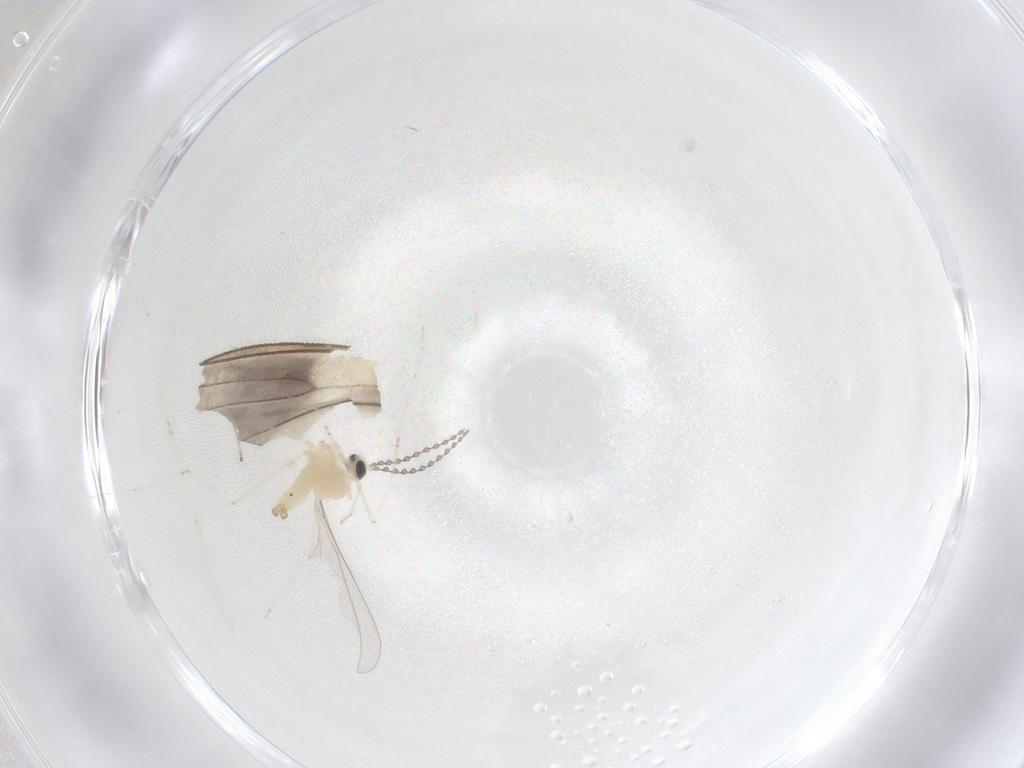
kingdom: Animalia
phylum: Arthropoda
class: Insecta
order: Diptera
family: Cecidomyiidae
